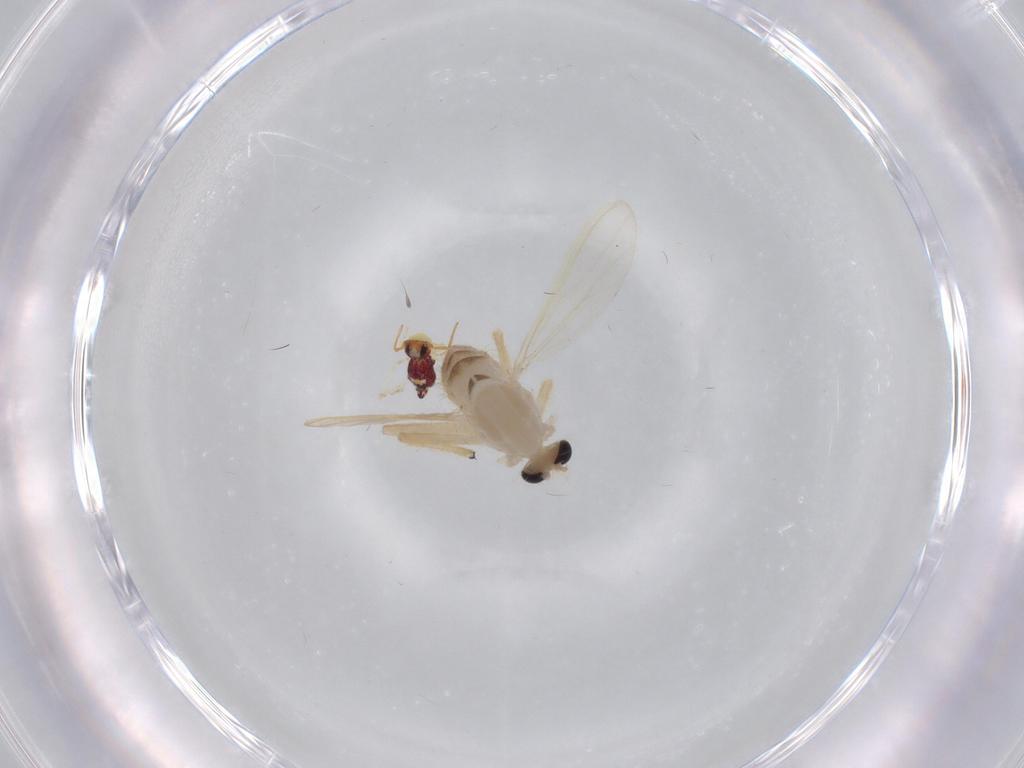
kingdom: Animalia
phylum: Arthropoda
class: Insecta
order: Diptera
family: Chironomidae
